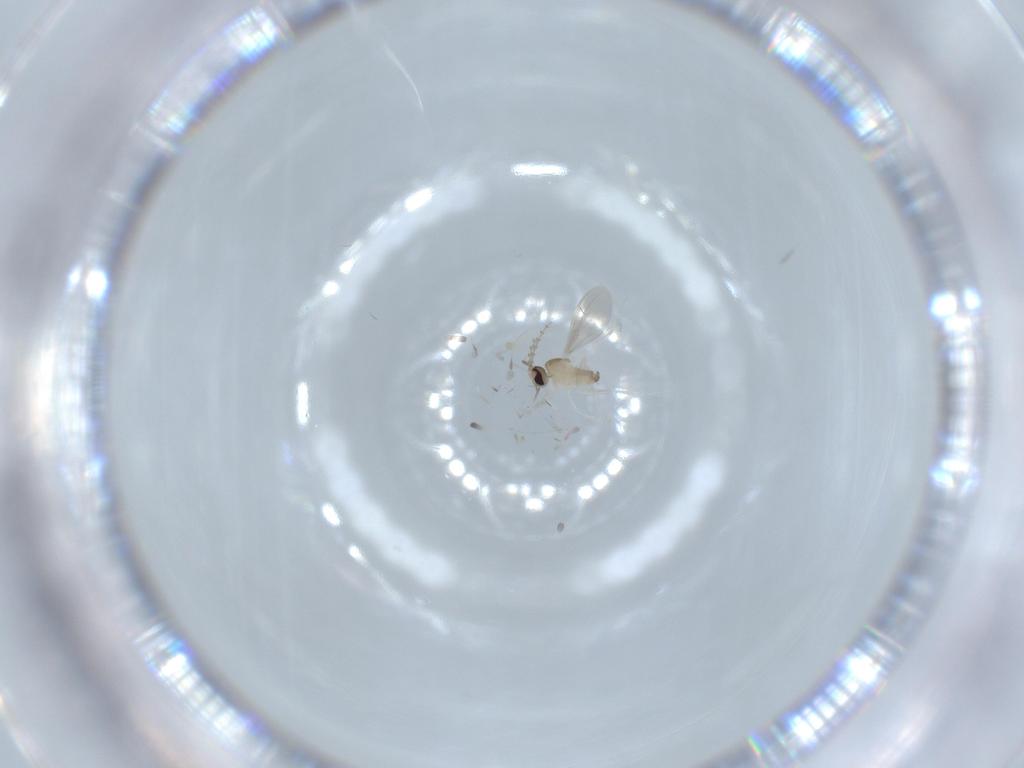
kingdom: Animalia
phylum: Arthropoda
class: Insecta
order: Diptera
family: Cecidomyiidae
